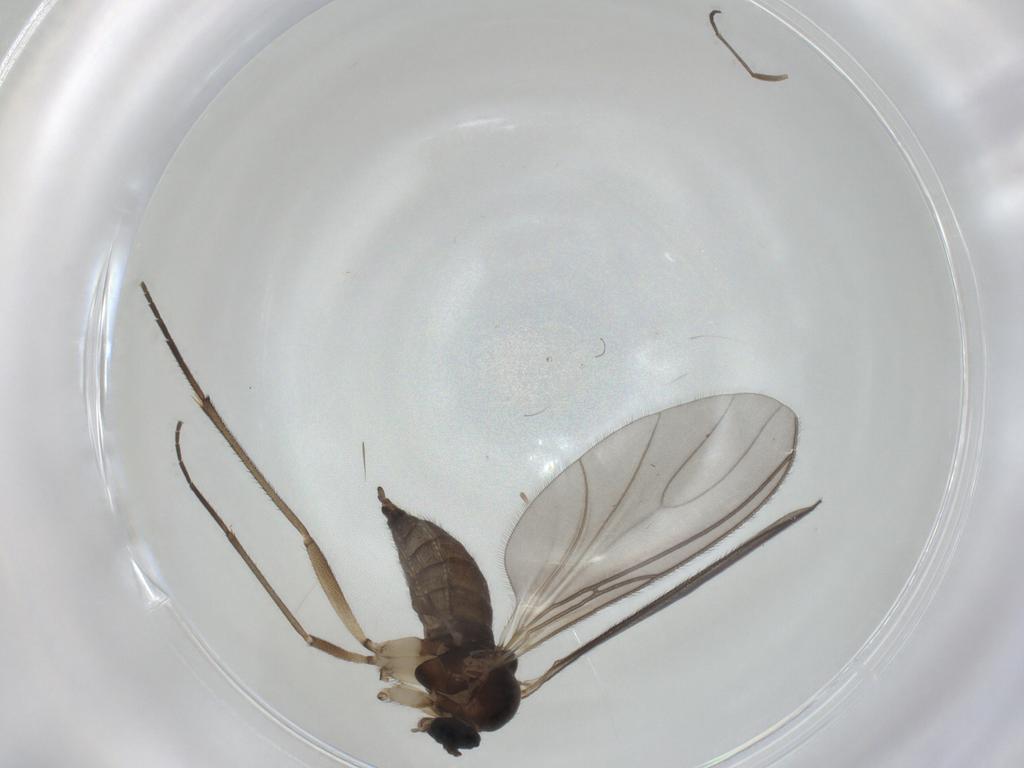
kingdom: Animalia
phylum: Arthropoda
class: Insecta
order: Diptera
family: Sciaridae
